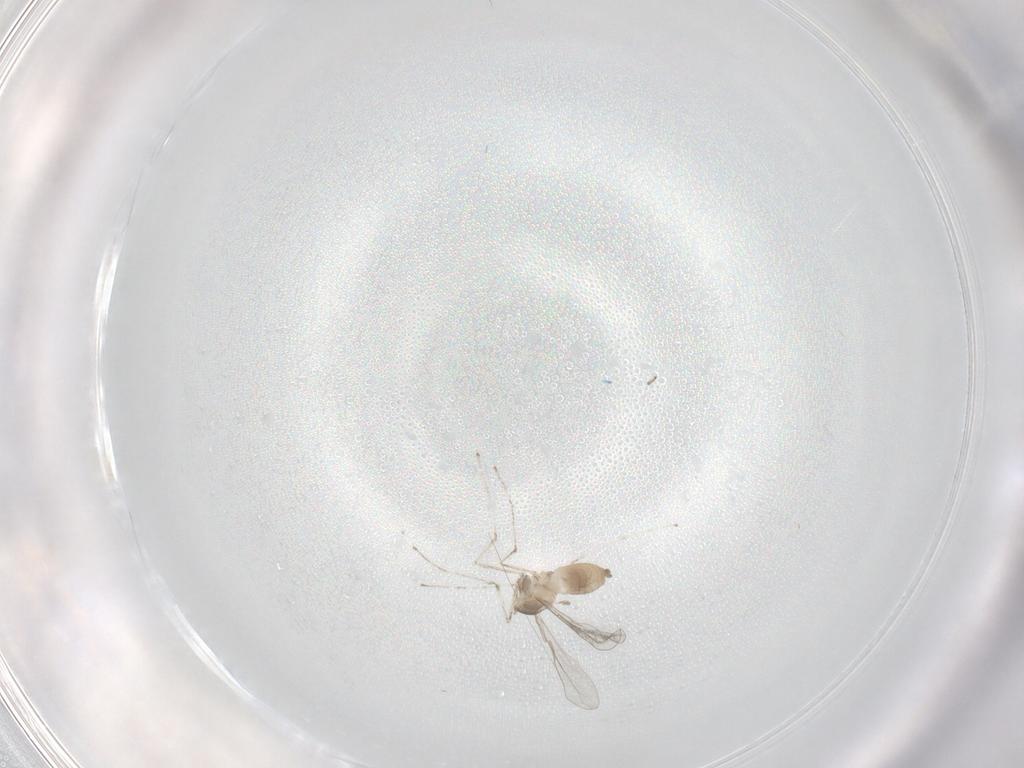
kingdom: Animalia
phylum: Arthropoda
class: Insecta
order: Diptera
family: Cecidomyiidae
